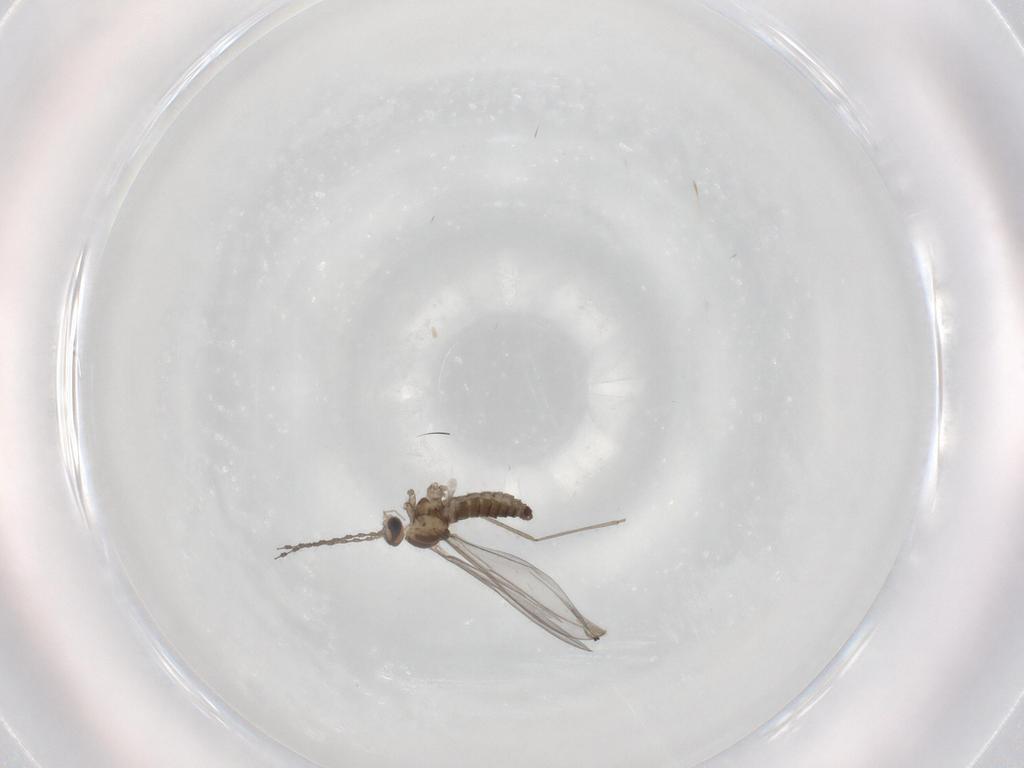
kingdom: Animalia
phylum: Arthropoda
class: Insecta
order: Diptera
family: Cecidomyiidae
